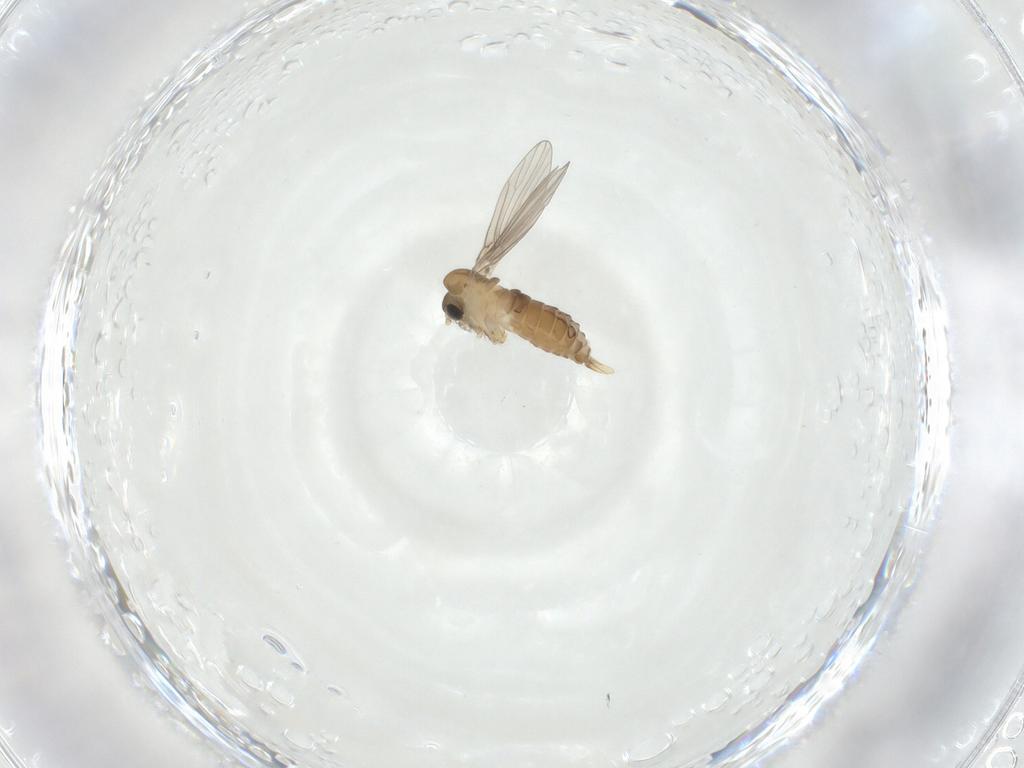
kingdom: Animalia
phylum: Arthropoda
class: Insecta
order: Diptera
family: Psychodidae
